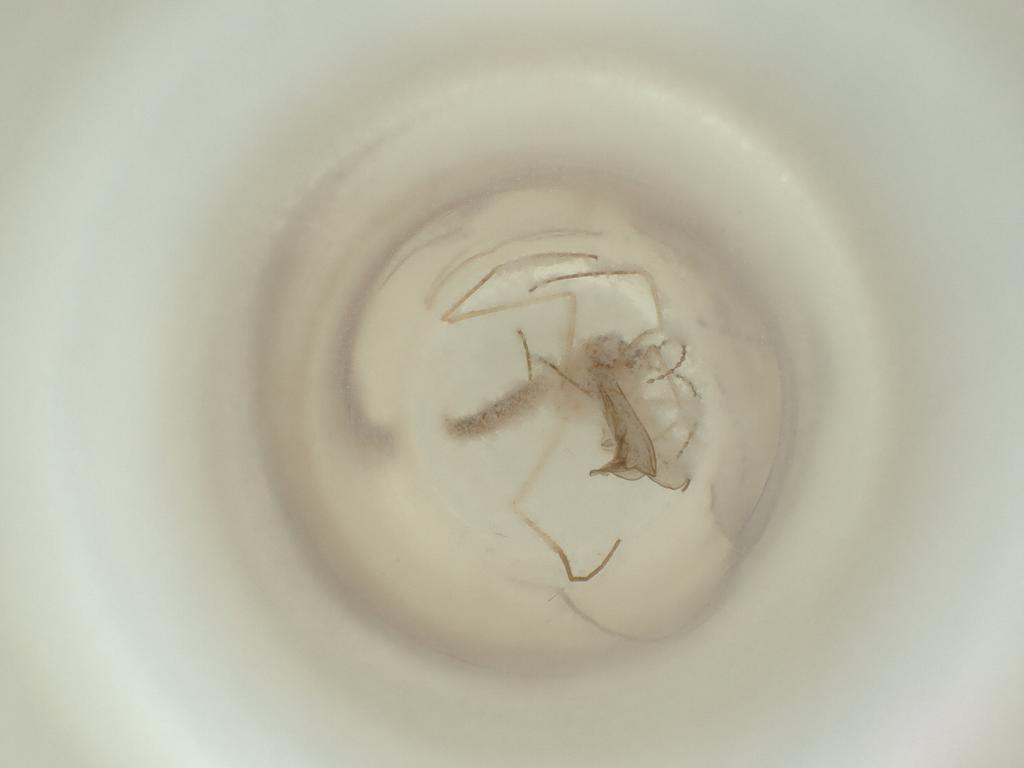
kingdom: Animalia
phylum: Arthropoda
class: Insecta
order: Diptera
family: Cecidomyiidae
